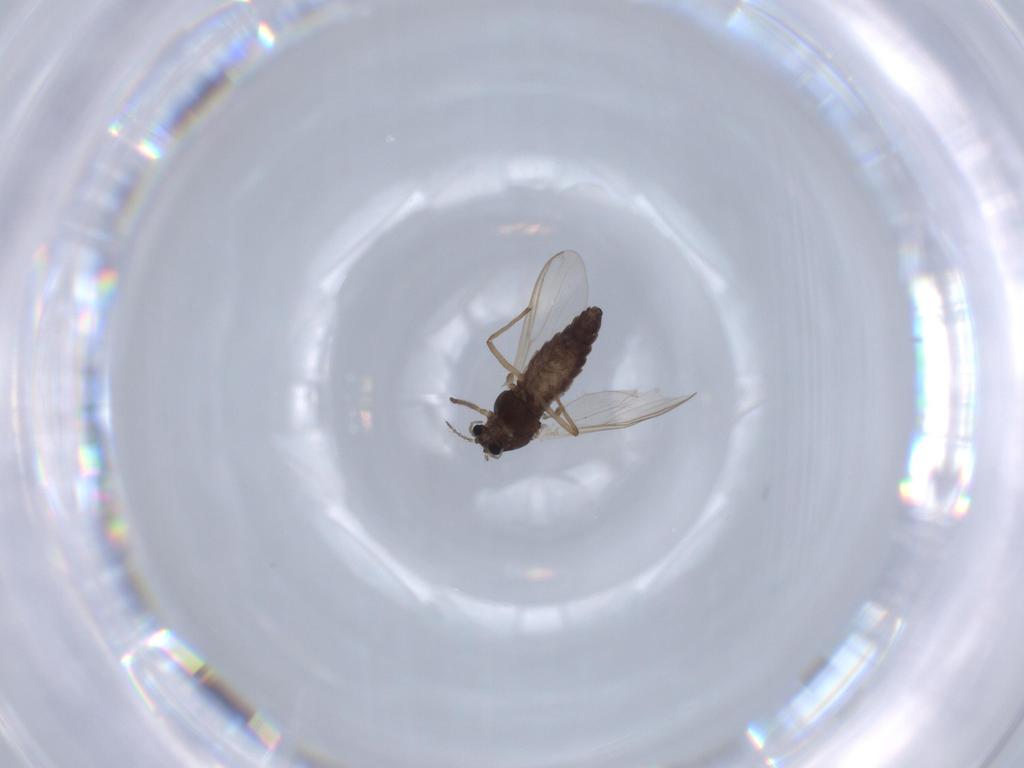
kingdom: Animalia
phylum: Arthropoda
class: Insecta
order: Diptera
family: Chironomidae
